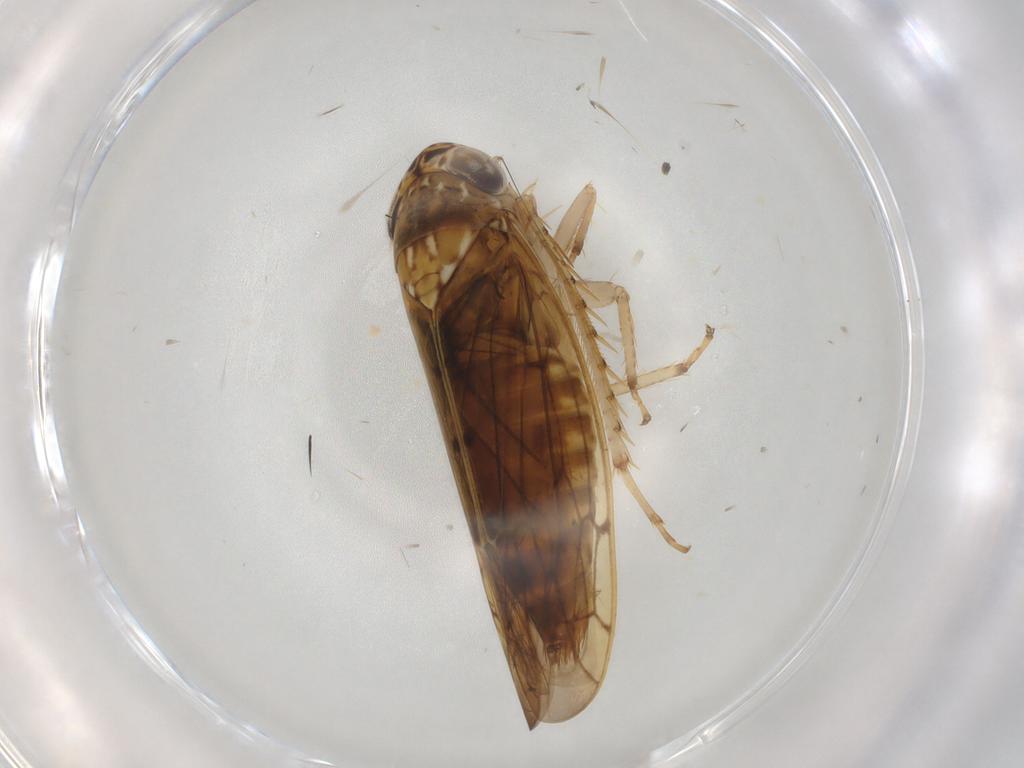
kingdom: Animalia
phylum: Arthropoda
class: Insecta
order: Hemiptera
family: Cicadellidae
